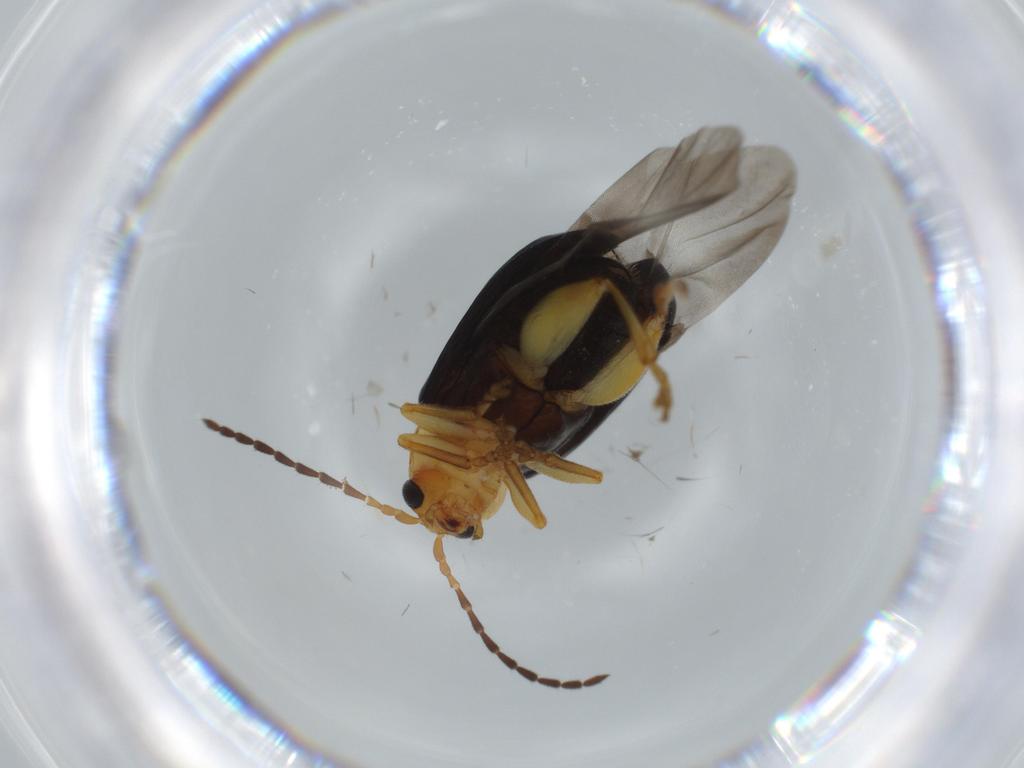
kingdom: Animalia
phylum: Arthropoda
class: Insecta
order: Coleoptera
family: Chrysomelidae
